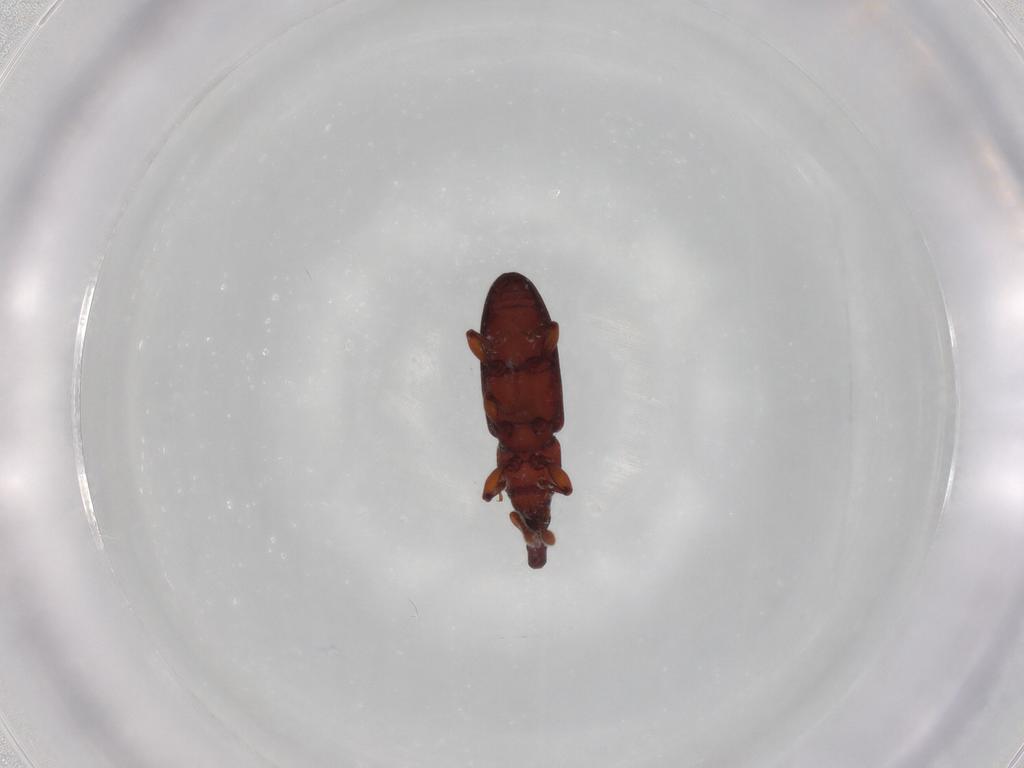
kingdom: Animalia
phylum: Arthropoda
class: Insecta
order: Coleoptera
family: Curculionidae
